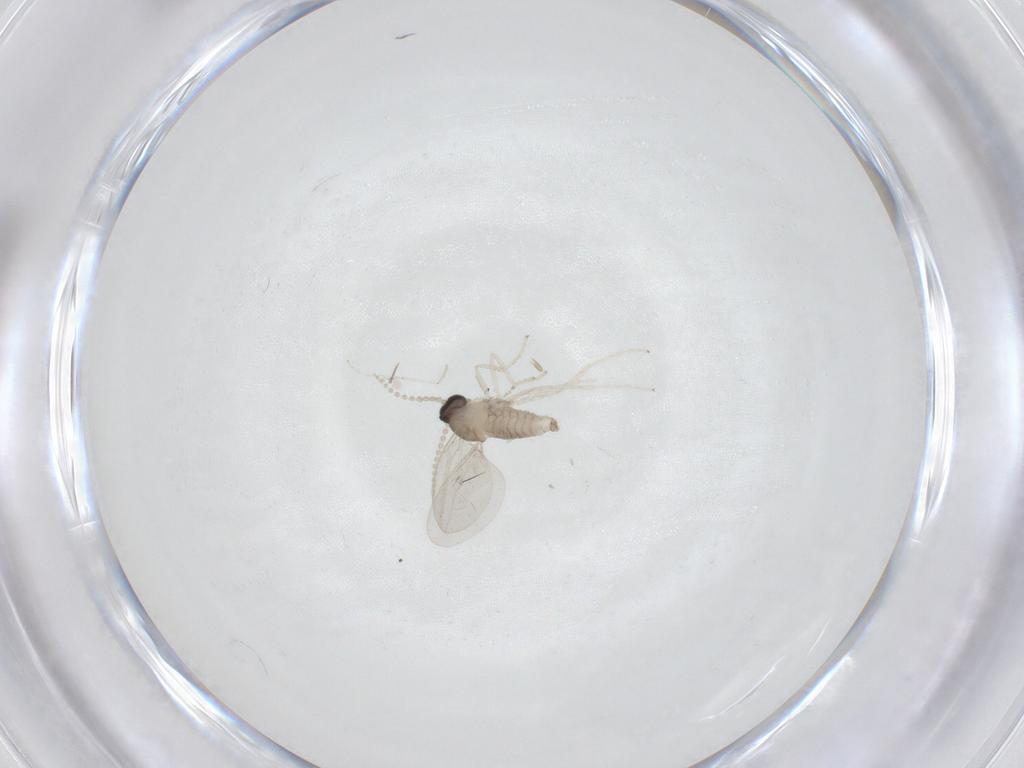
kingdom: Animalia
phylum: Arthropoda
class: Insecta
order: Diptera
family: Cecidomyiidae
